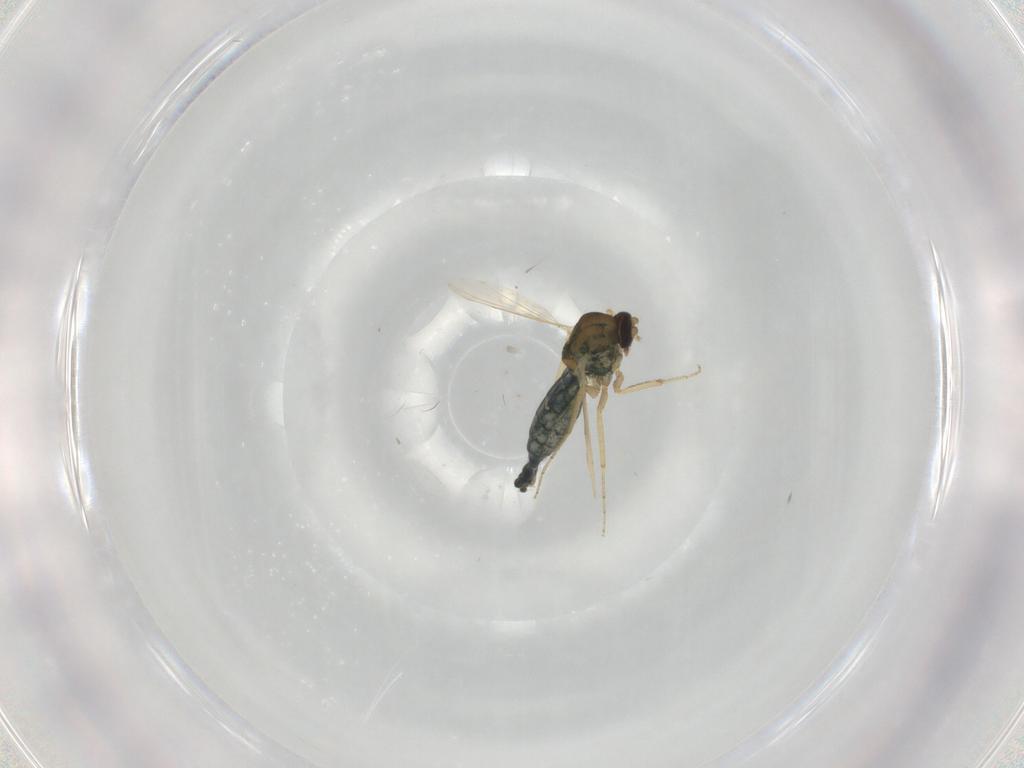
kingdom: Animalia
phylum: Arthropoda
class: Insecta
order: Diptera
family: Ceratopogonidae
